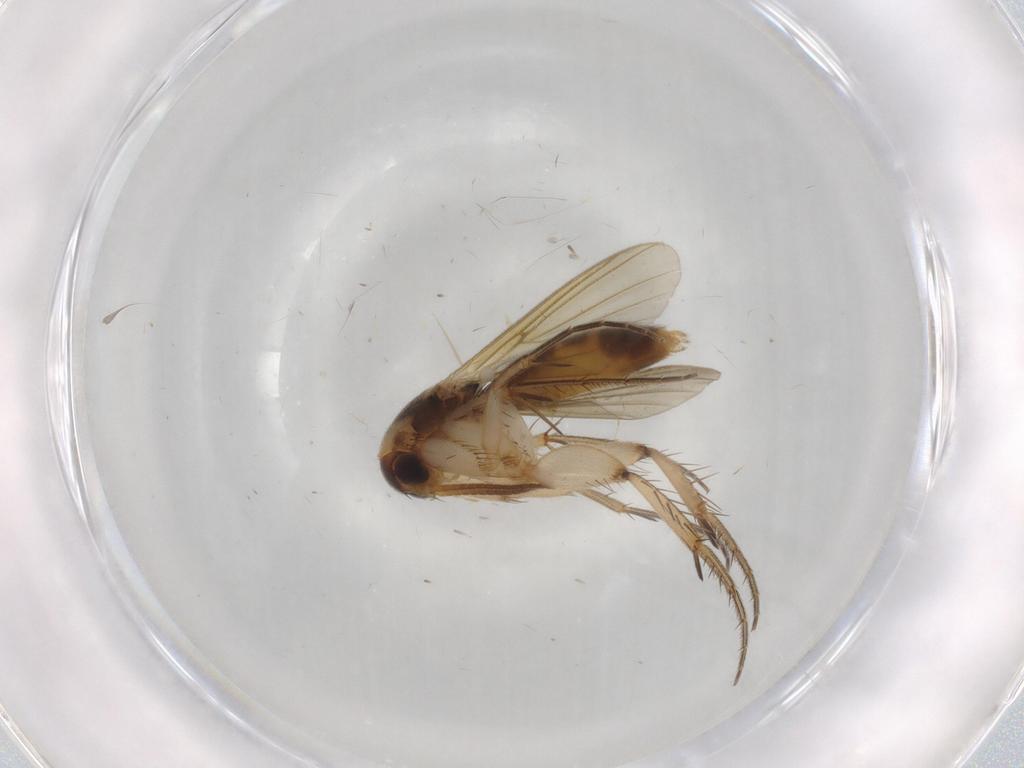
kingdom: Animalia
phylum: Arthropoda
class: Insecta
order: Diptera
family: Mycetophilidae
